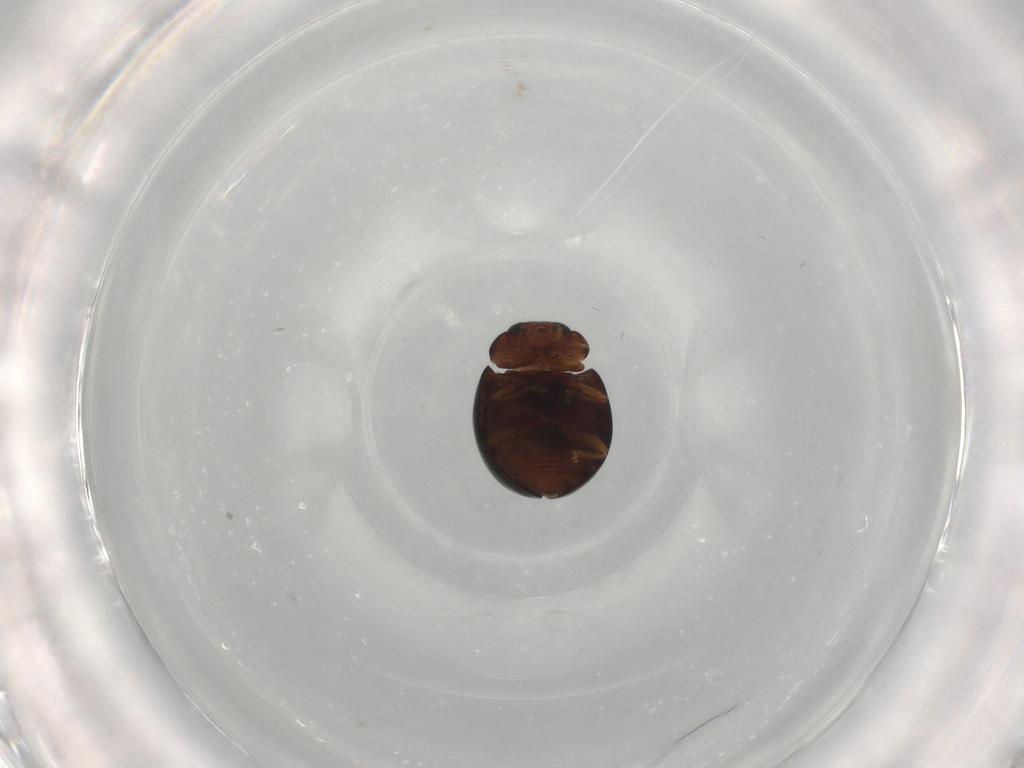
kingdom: Animalia
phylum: Arthropoda
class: Insecta
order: Coleoptera
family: Coccinellidae
